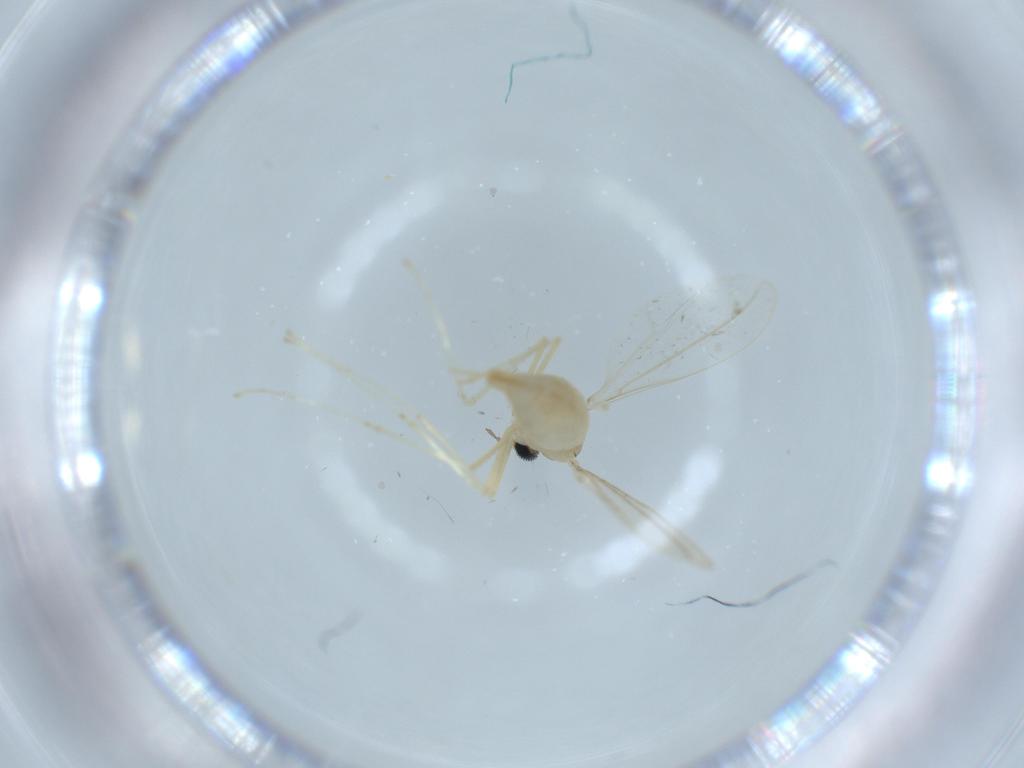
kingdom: Animalia
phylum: Arthropoda
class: Insecta
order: Diptera
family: Cecidomyiidae
